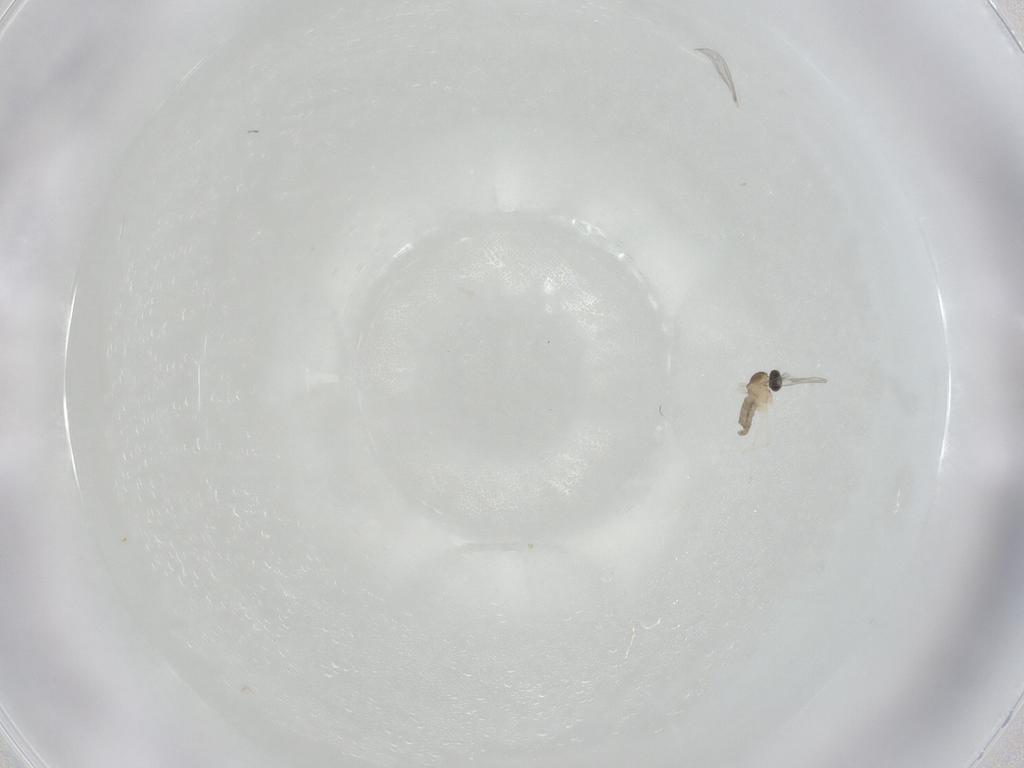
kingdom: Animalia
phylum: Arthropoda
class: Insecta
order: Diptera
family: Cecidomyiidae
